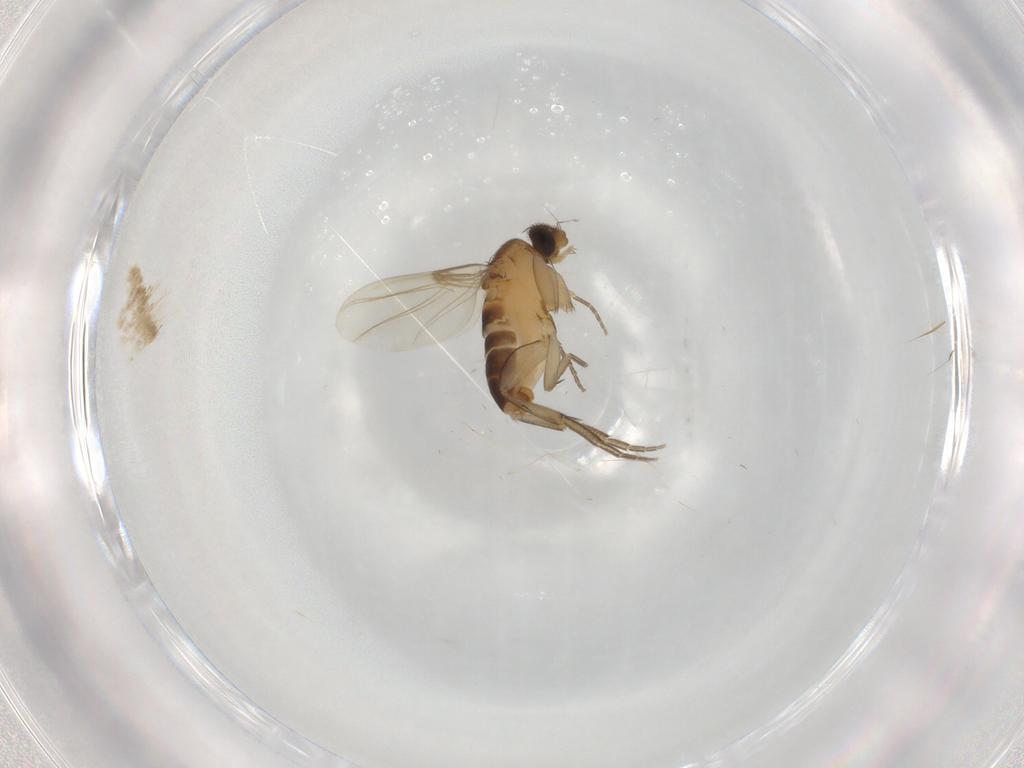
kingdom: Animalia
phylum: Arthropoda
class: Insecta
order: Diptera
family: Phoridae
